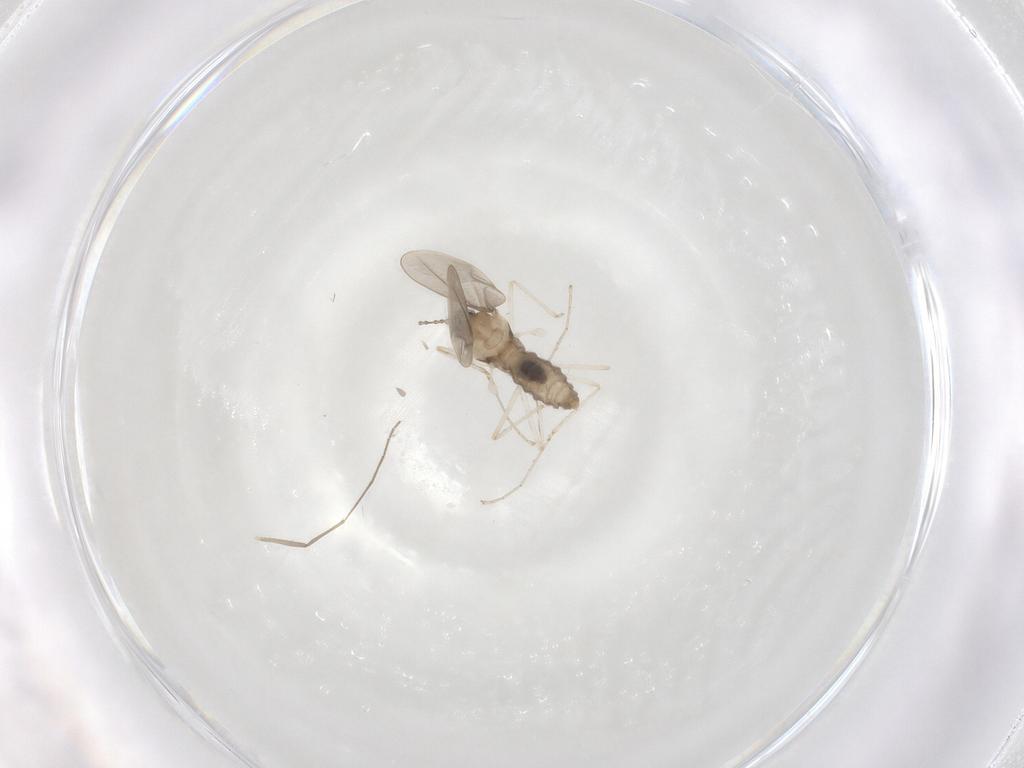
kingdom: Animalia
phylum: Arthropoda
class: Insecta
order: Diptera
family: Cecidomyiidae
